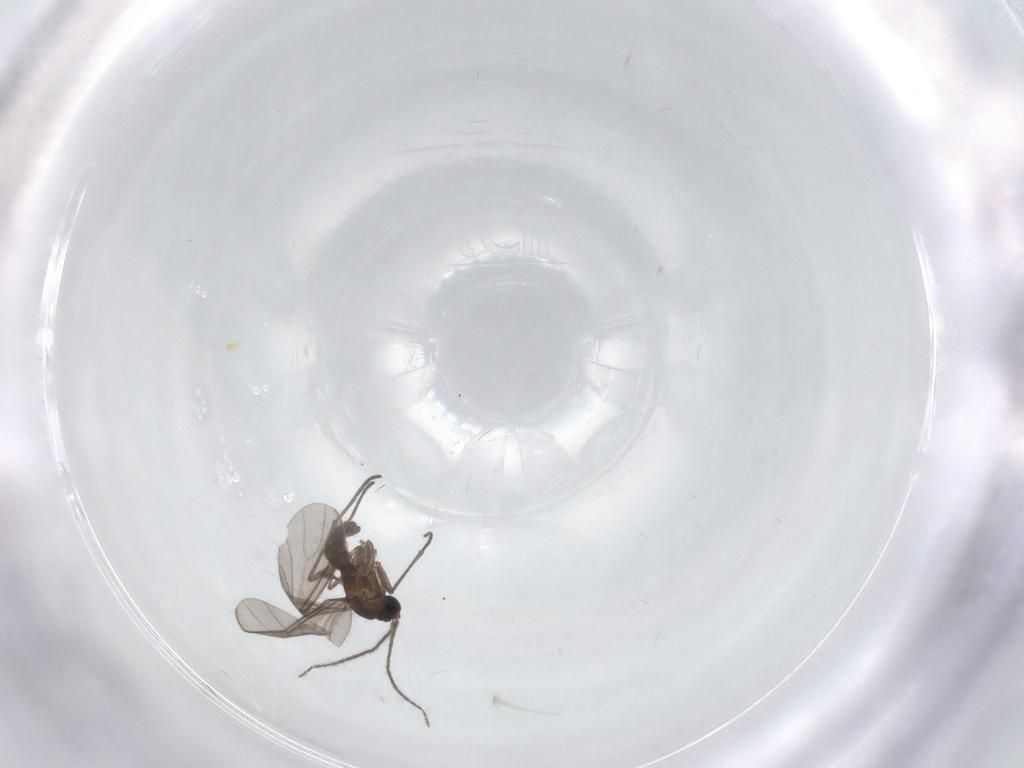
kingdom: Animalia
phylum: Arthropoda
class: Insecta
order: Diptera
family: Sciaridae
